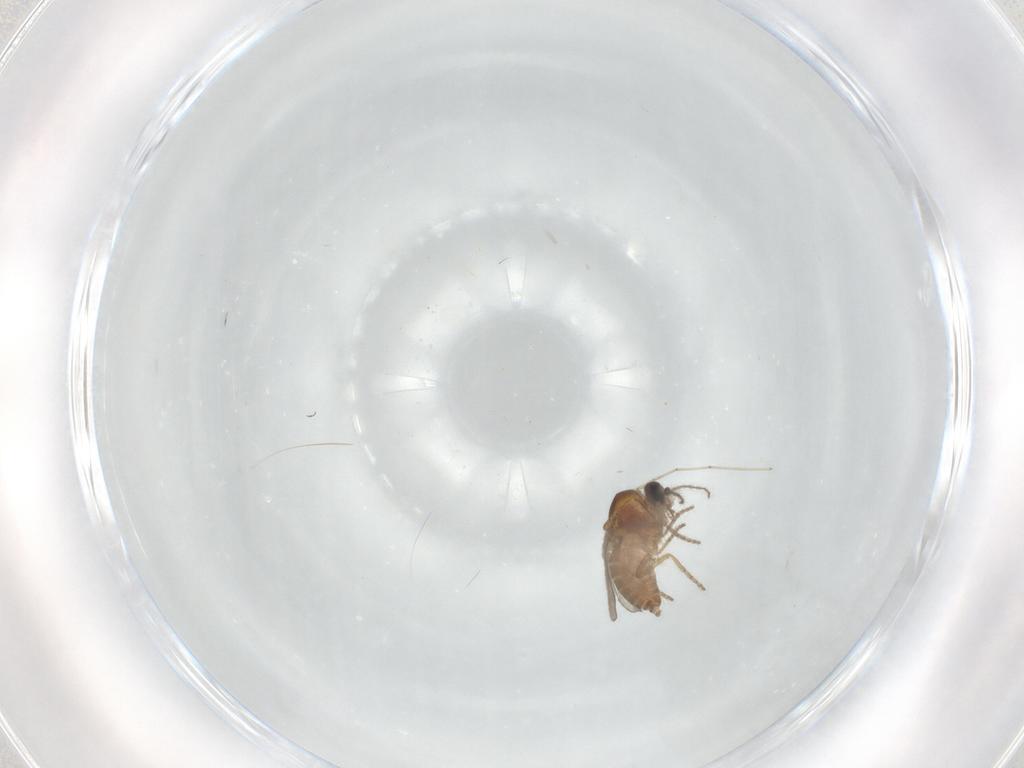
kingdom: Animalia
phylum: Arthropoda
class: Insecta
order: Diptera
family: Ceratopogonidae
